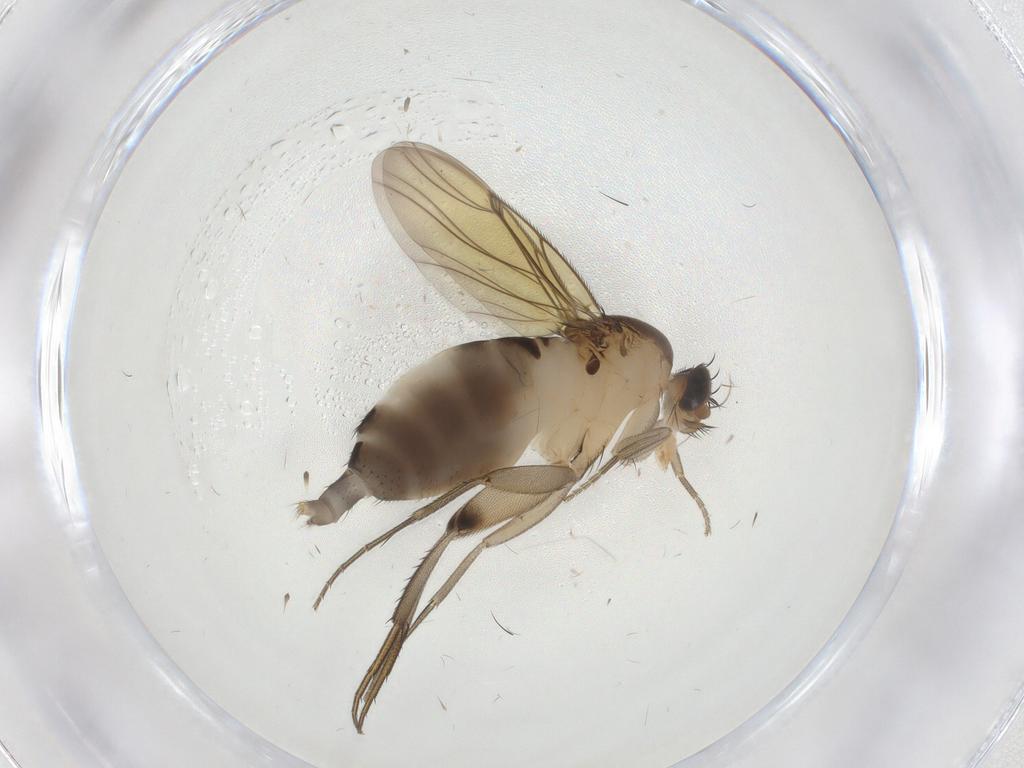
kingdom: Animalia
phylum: Arthropoda
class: Insecta
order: Diptera
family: Phoridae
